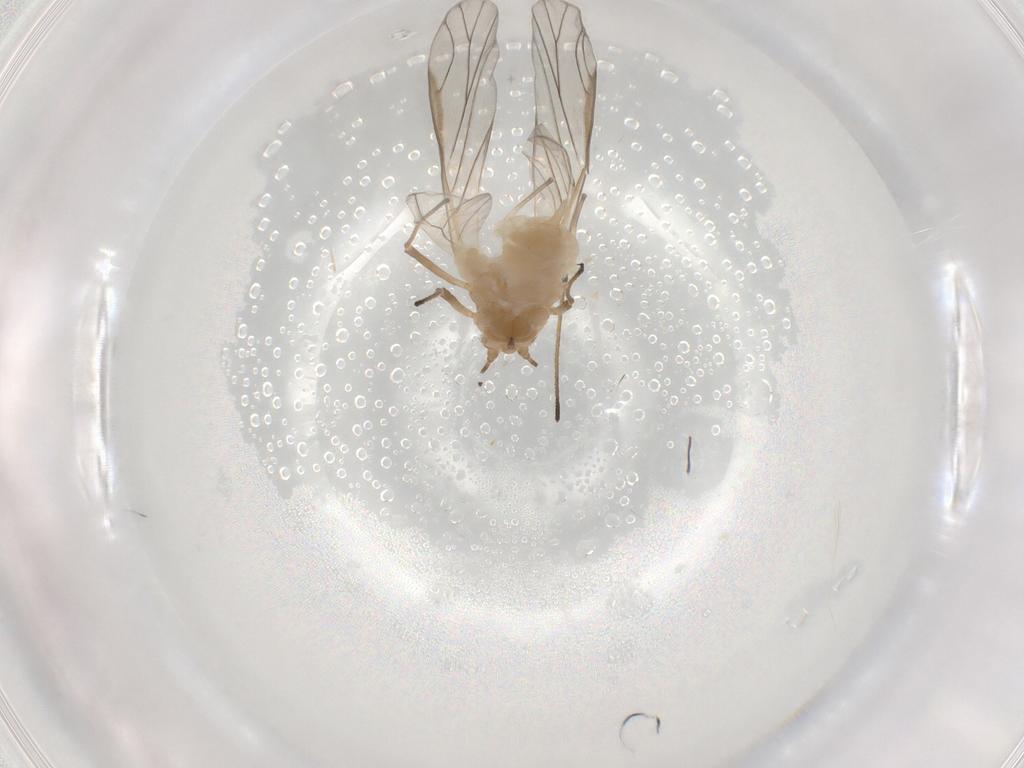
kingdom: Animalia
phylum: Arthropoda
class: Insecta
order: Hemiptera
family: Aphididae
